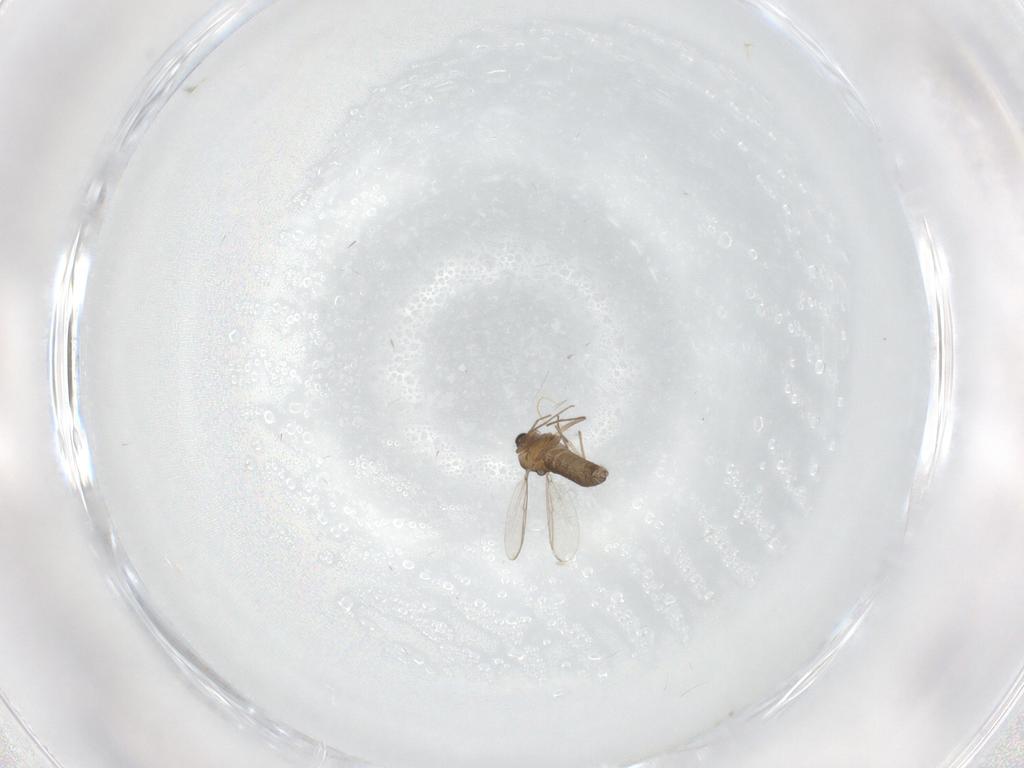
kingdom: Animalia
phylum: Arthropoda
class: Insecta
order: Diptera
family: Chironomidae
